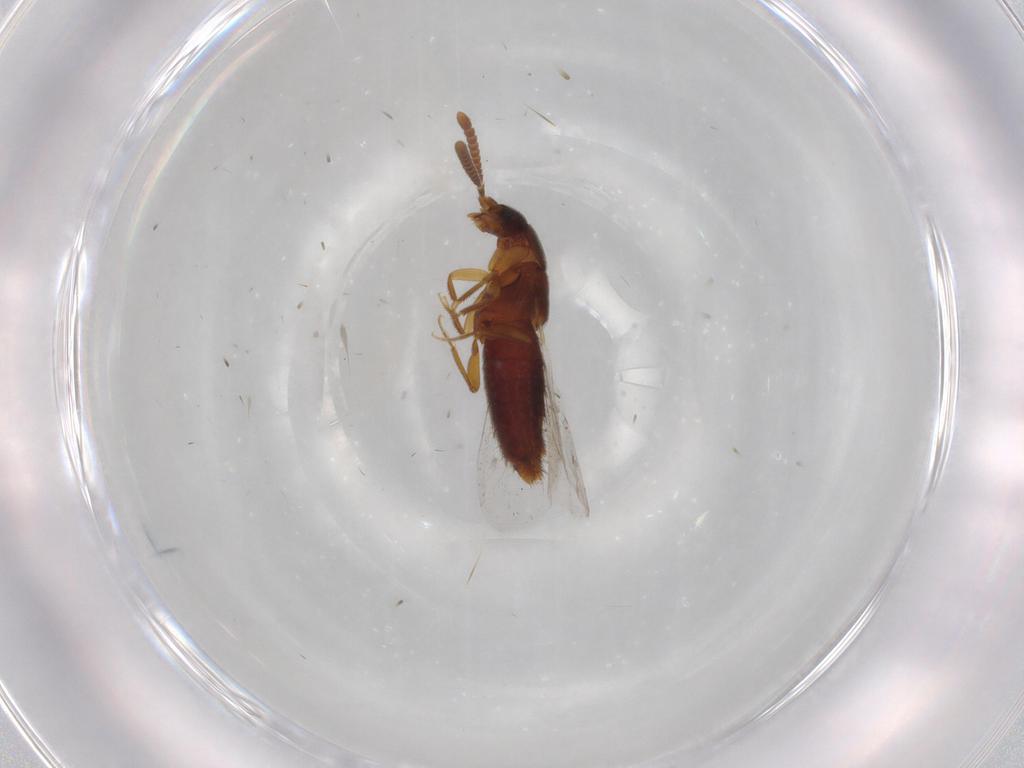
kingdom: Animalia
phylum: Arthropoda
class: Insecta
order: Coleoptera
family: Staphylinidae
